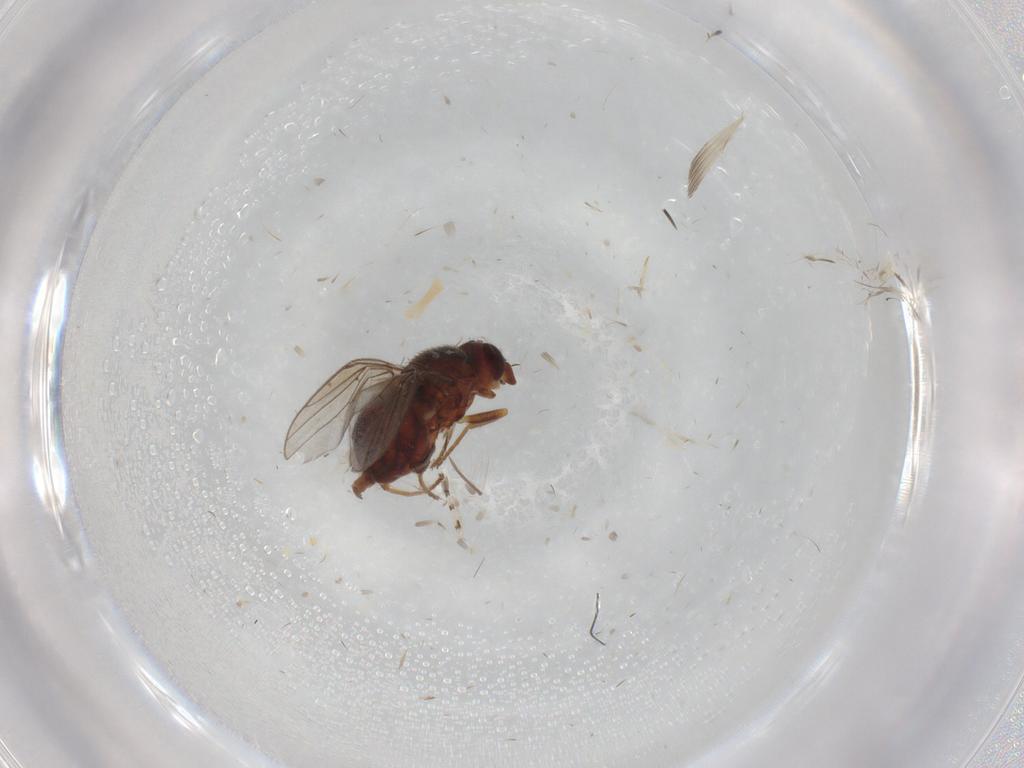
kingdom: Animalia
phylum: Arthropoda
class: Insecta
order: Diptera
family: Chloropidae
